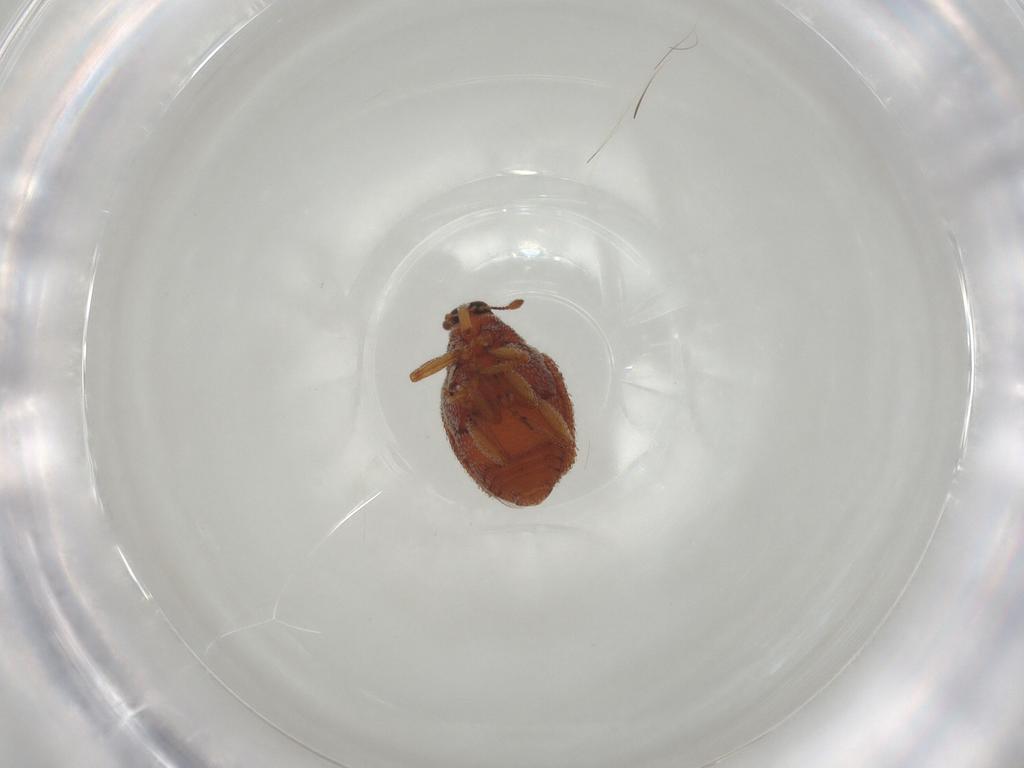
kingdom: Animalia
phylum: Arthropoda
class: Insecta
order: Coleoptera
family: Curculionidae
